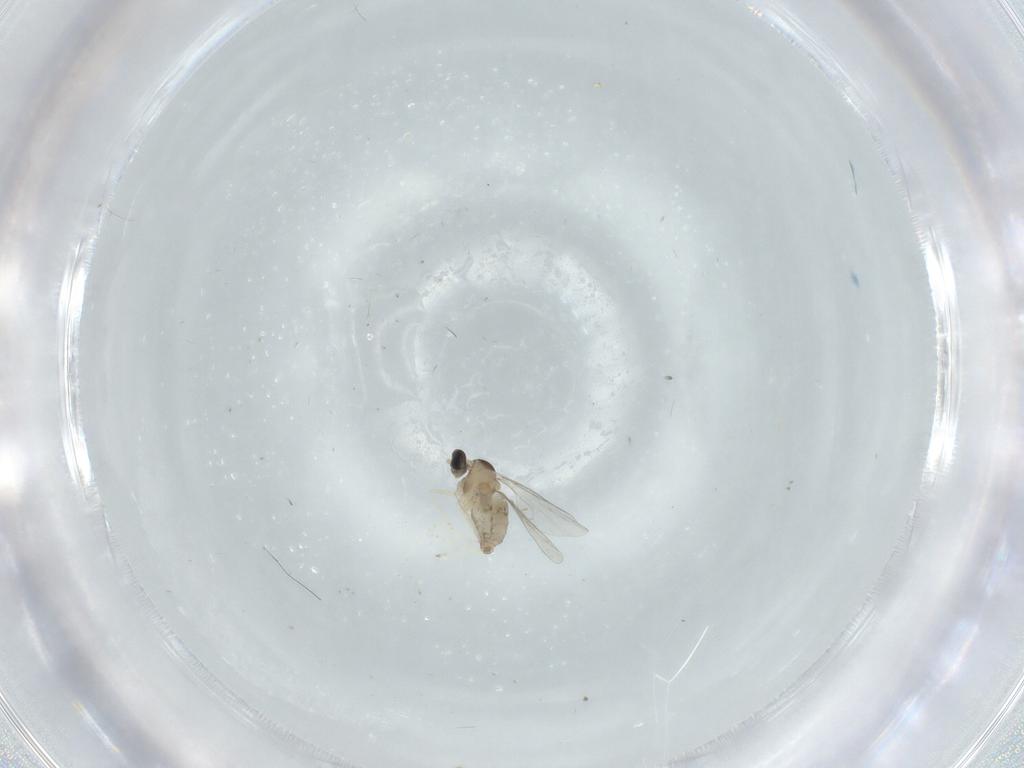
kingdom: Animalia
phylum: Arthropoda
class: Insecta
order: Diptera
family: Cecidomyiidae
